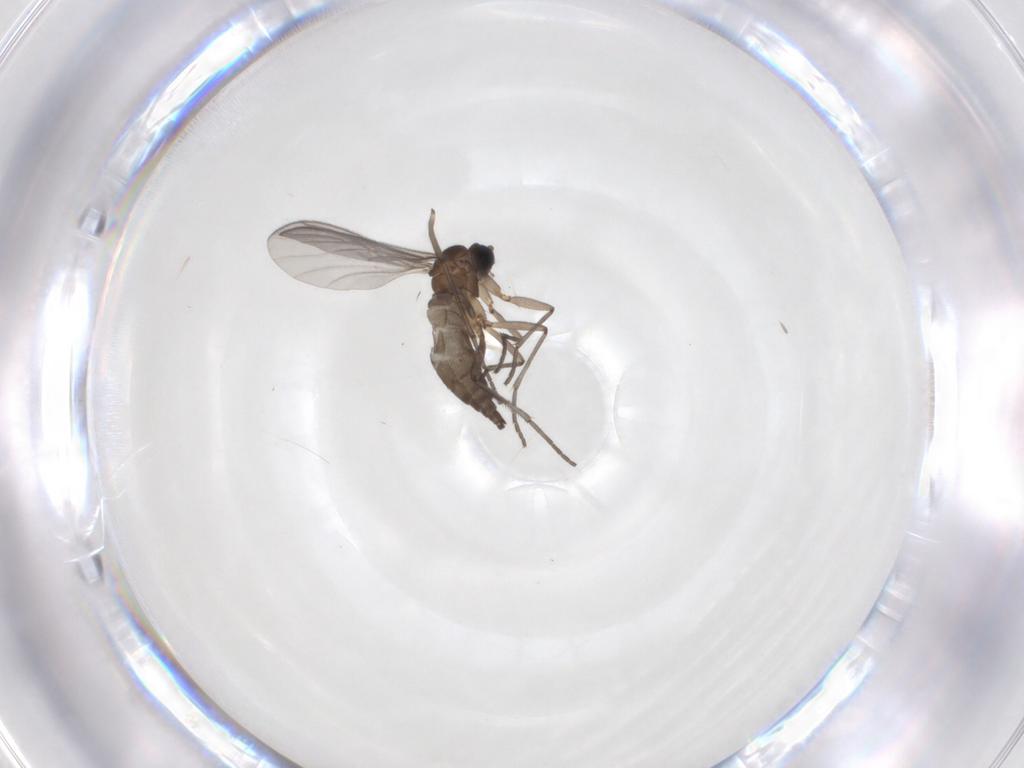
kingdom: Animalia
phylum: Arthropoda
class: Insecta
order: Diptera
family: Sciaridae
